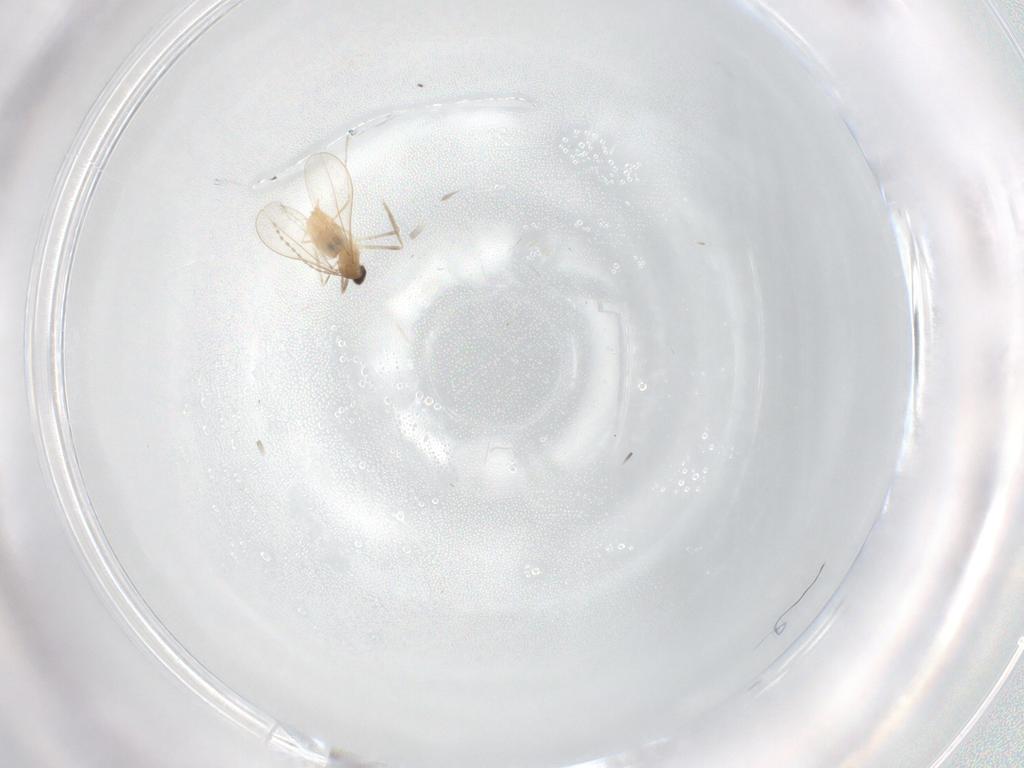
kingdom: Animalia
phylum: Arthropoda
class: Insecta
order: Diptera
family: Cecidomyiidae
